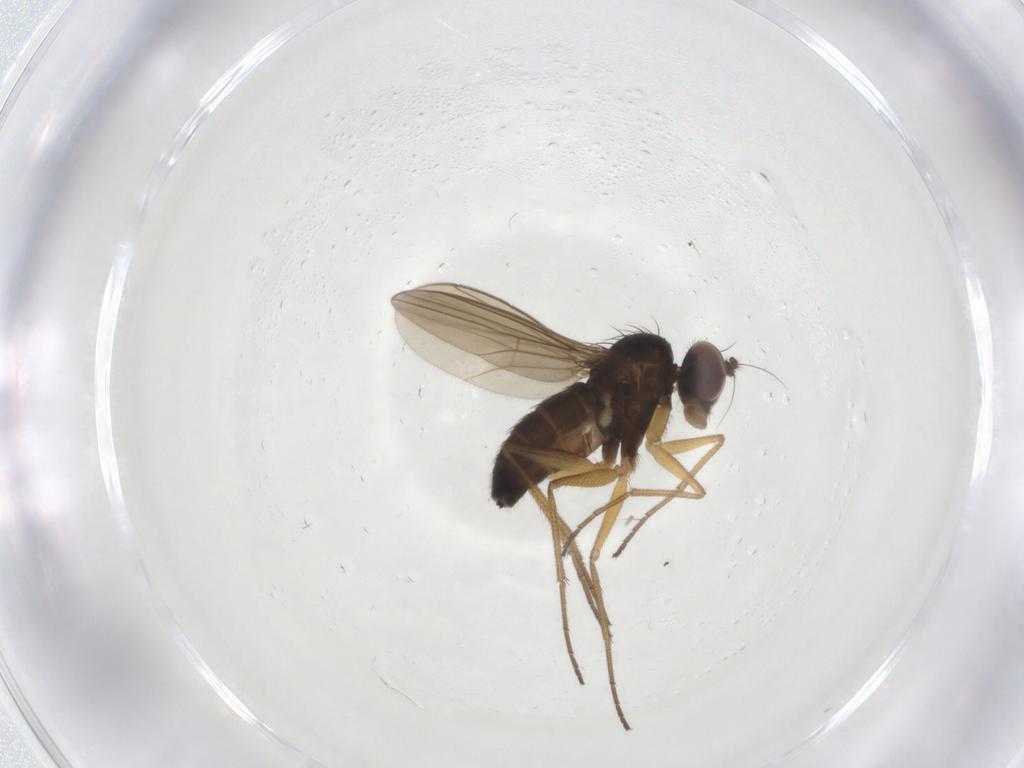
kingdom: Animalia
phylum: Arthropoda
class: Insecta
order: Diptera
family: Dolichopodidae
